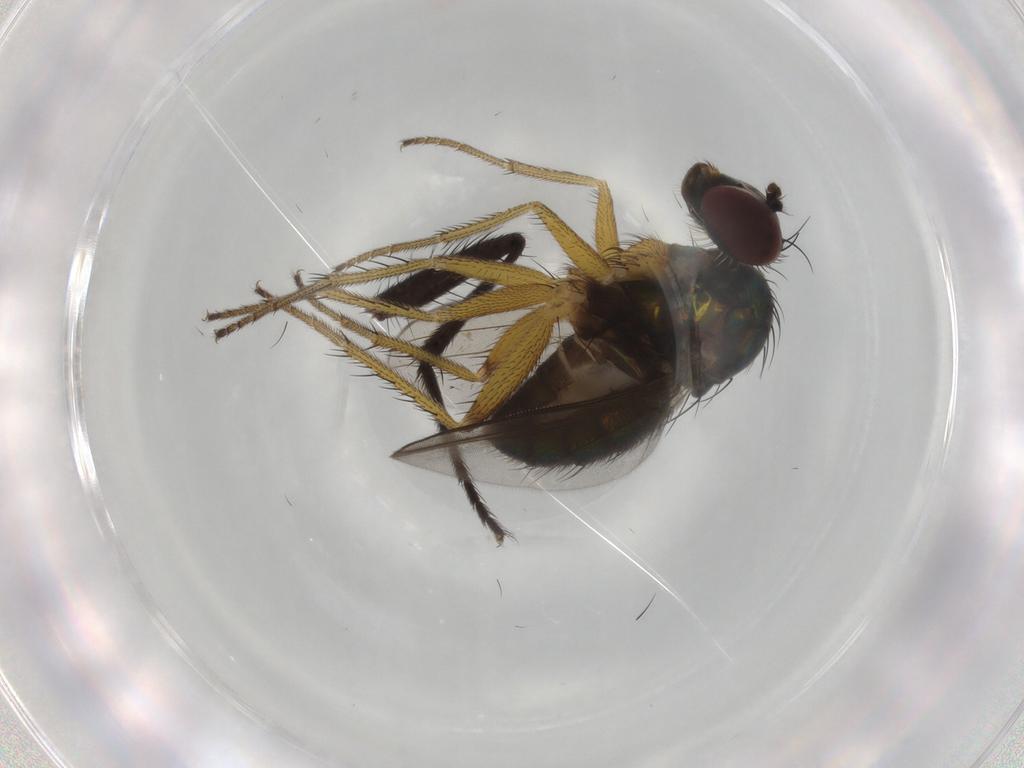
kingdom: Animalia
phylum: Arthropoda
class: Insecta
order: Diptera
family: Dolichopodidae
